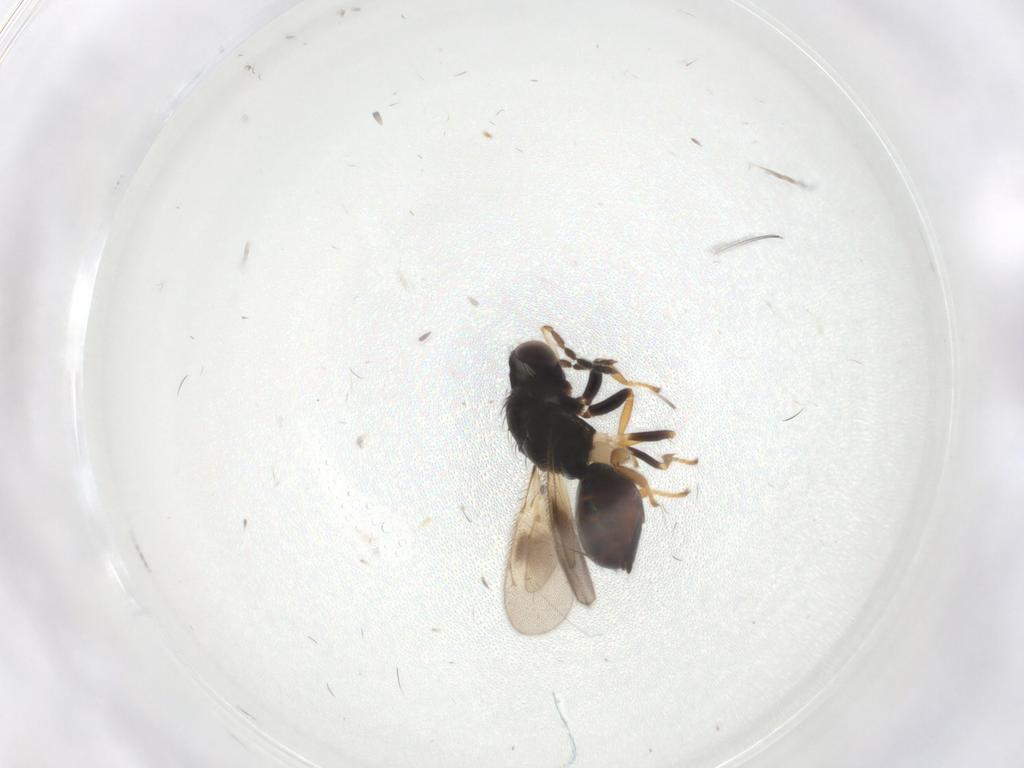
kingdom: Animalia
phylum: Arthropoda
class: Insecta
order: Hymenoptera
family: Eulophidae
